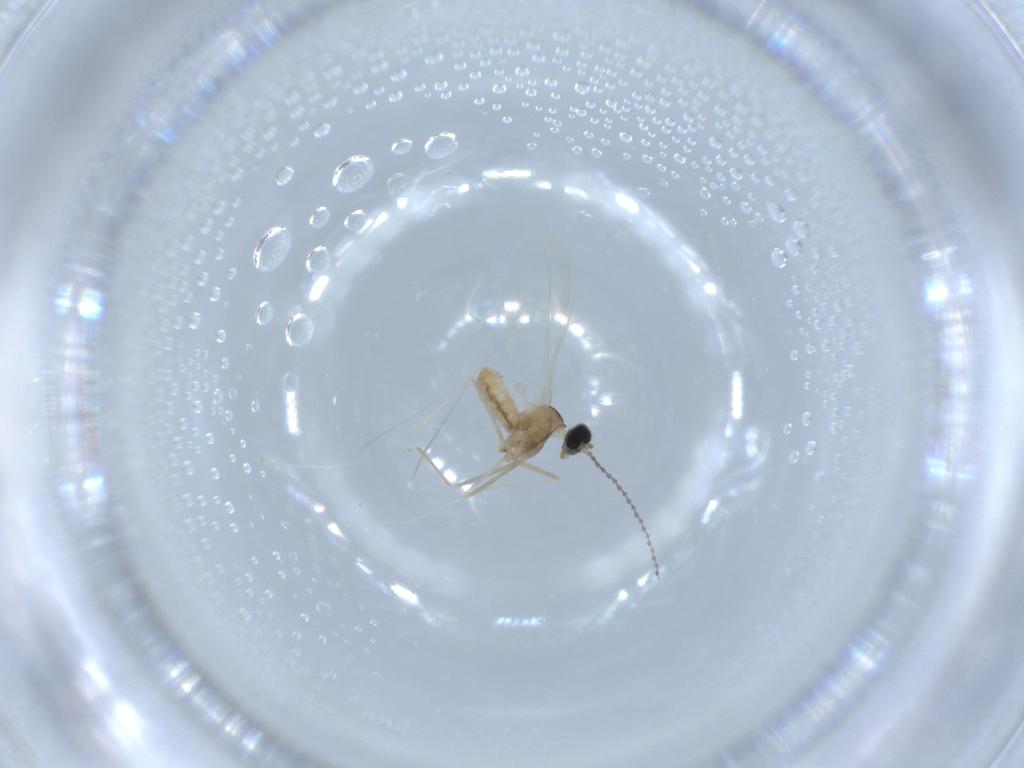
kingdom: Animalia
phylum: Arthropoda
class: Insecta
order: Diptera
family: Cecidomyiidae
